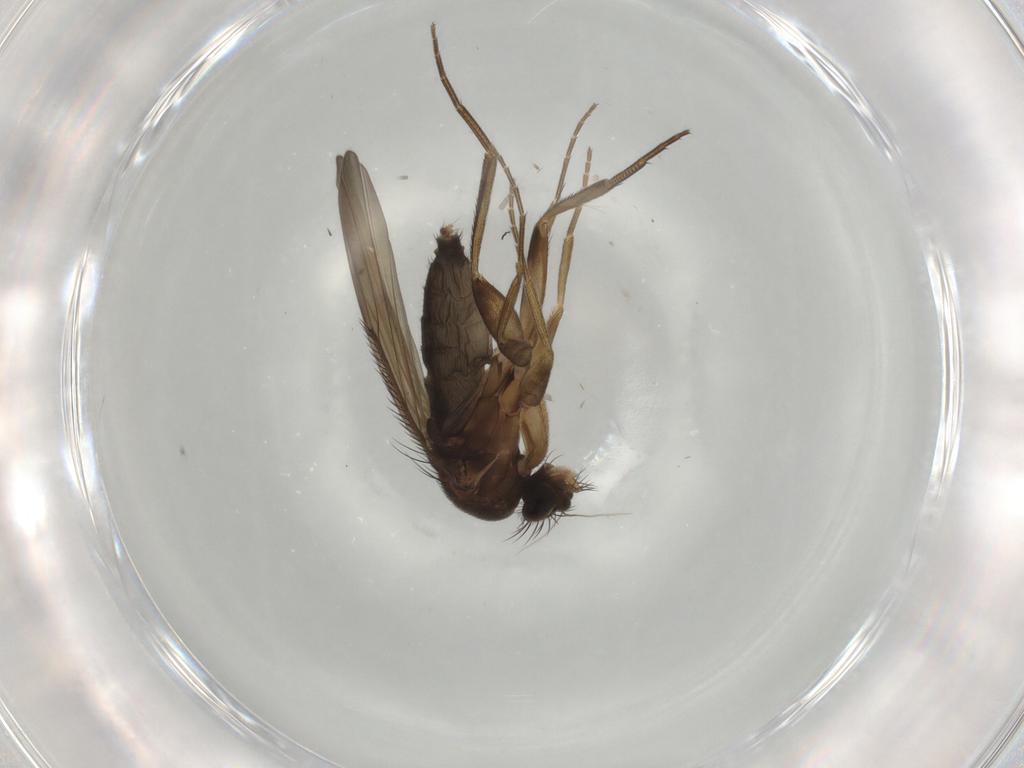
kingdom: Animalia
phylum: Arthropoda
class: Insecta
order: Diptera
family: Phoridae
